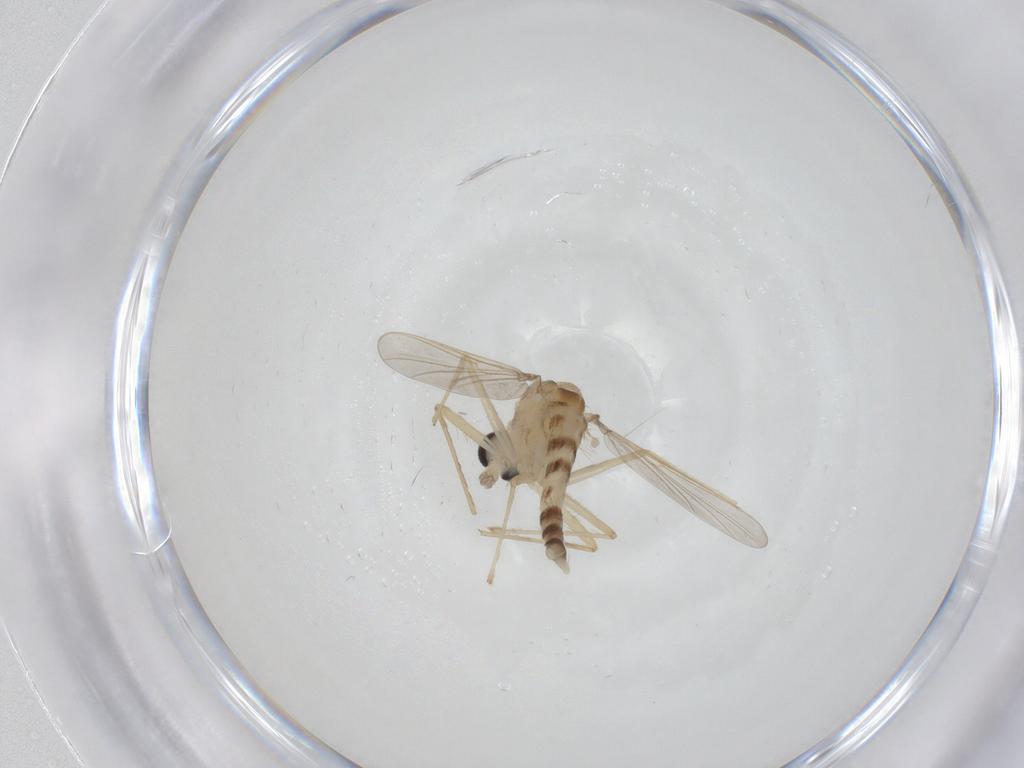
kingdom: Animalia
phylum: Arthropoda
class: Insecta
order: Diptera
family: Chironomidae
